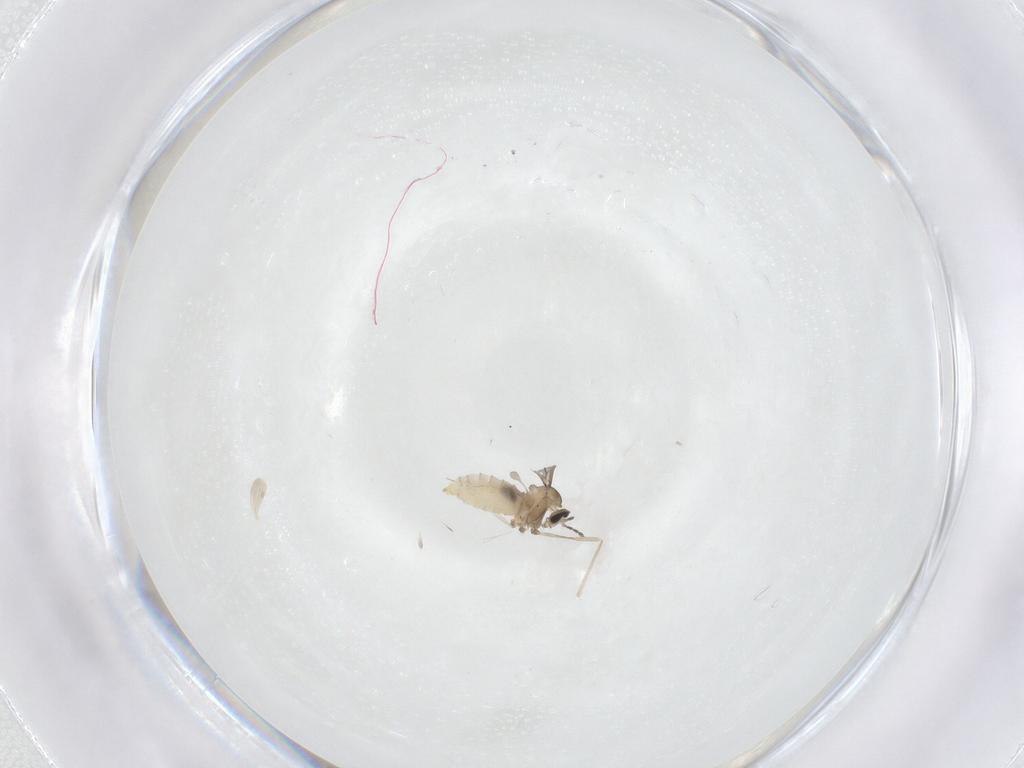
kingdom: Animalia
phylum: Arthropoda
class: Insecta
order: Diptera
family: Cecidomyiidae
